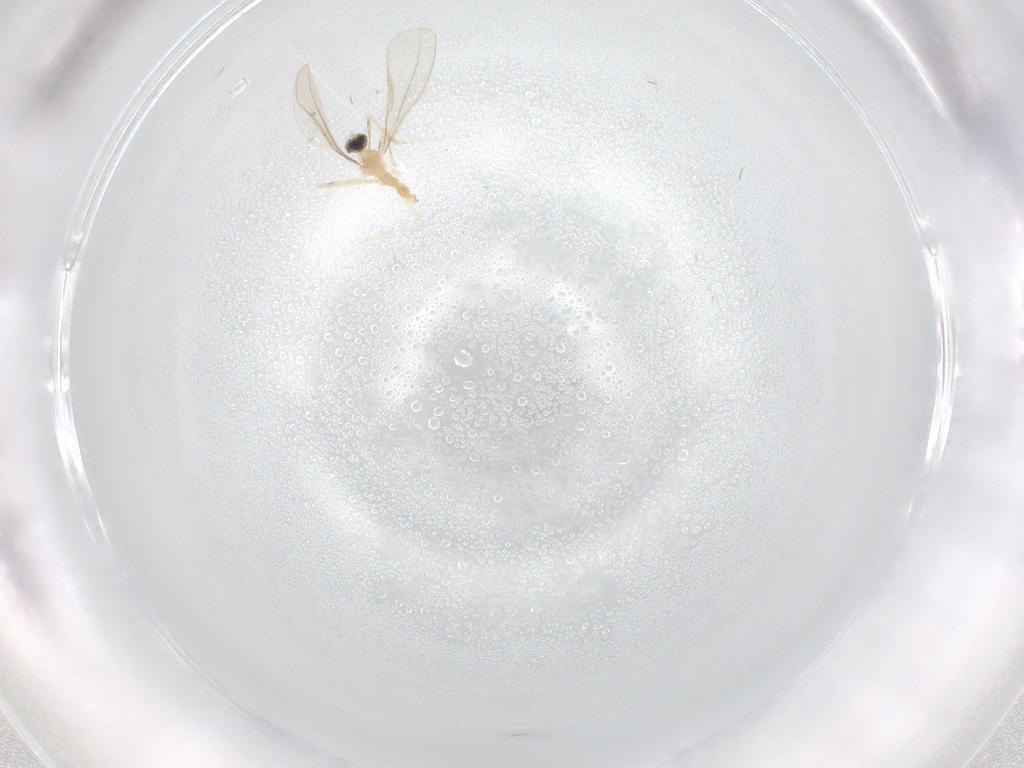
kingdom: Animalia
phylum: Arthropoda
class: Insecta
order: Diptera
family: Cecidomyiidae
